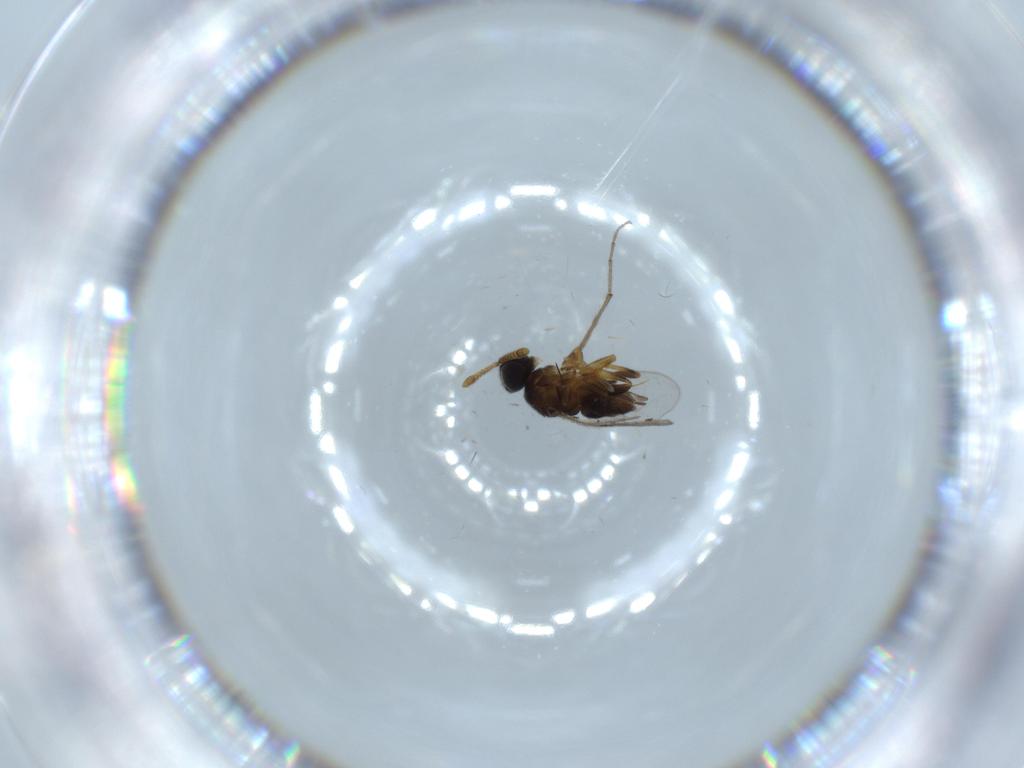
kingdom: Animalia
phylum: Arthropoda
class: Insecta
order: Diptera
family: Psychodidae
